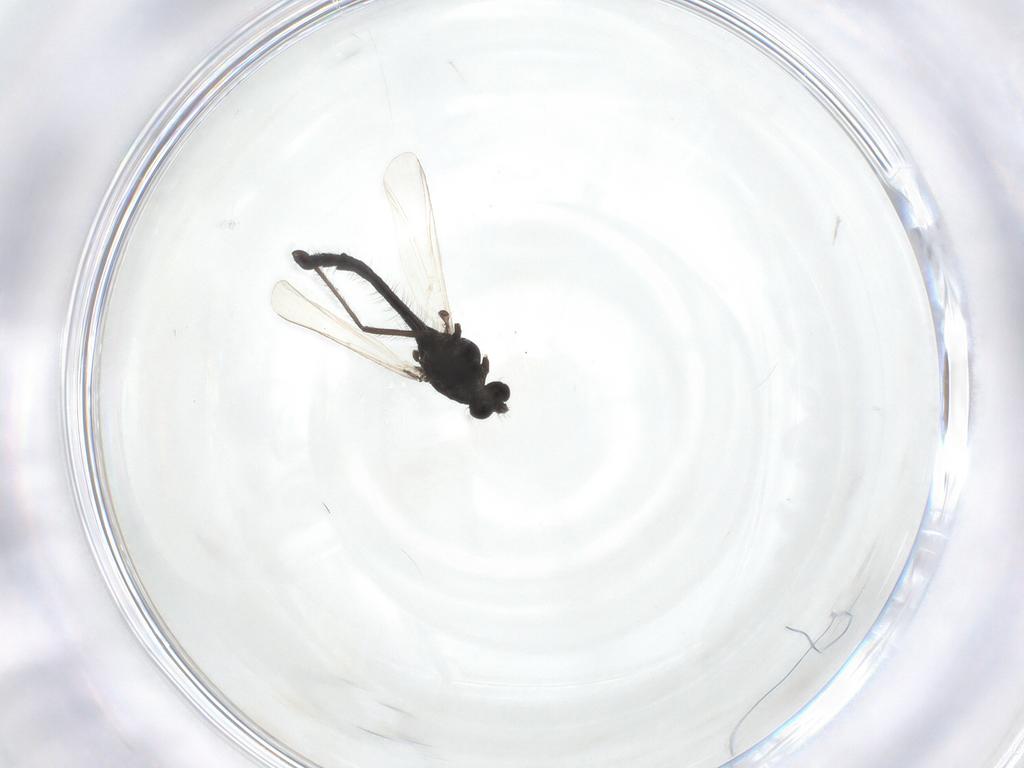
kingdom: Animalia
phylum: Arthropoda
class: Insecta
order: Diptera
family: Chironomidae
